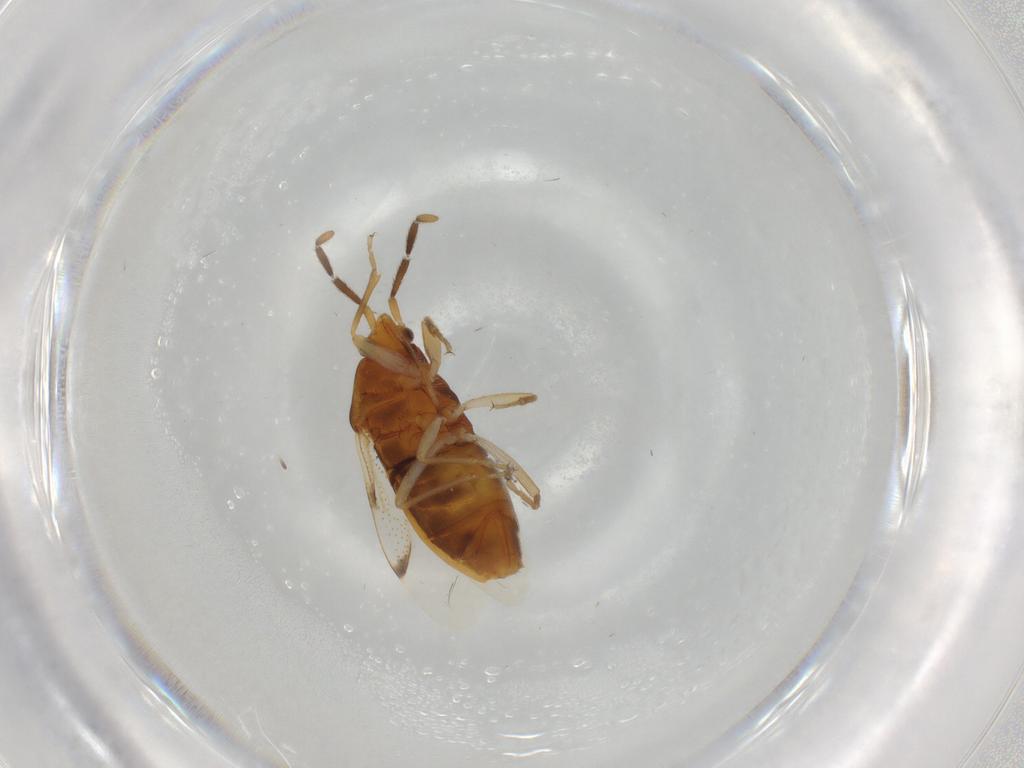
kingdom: Animalia
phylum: Arthropoda
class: Insecta
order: Hemiptera
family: Rhyparochromidae
